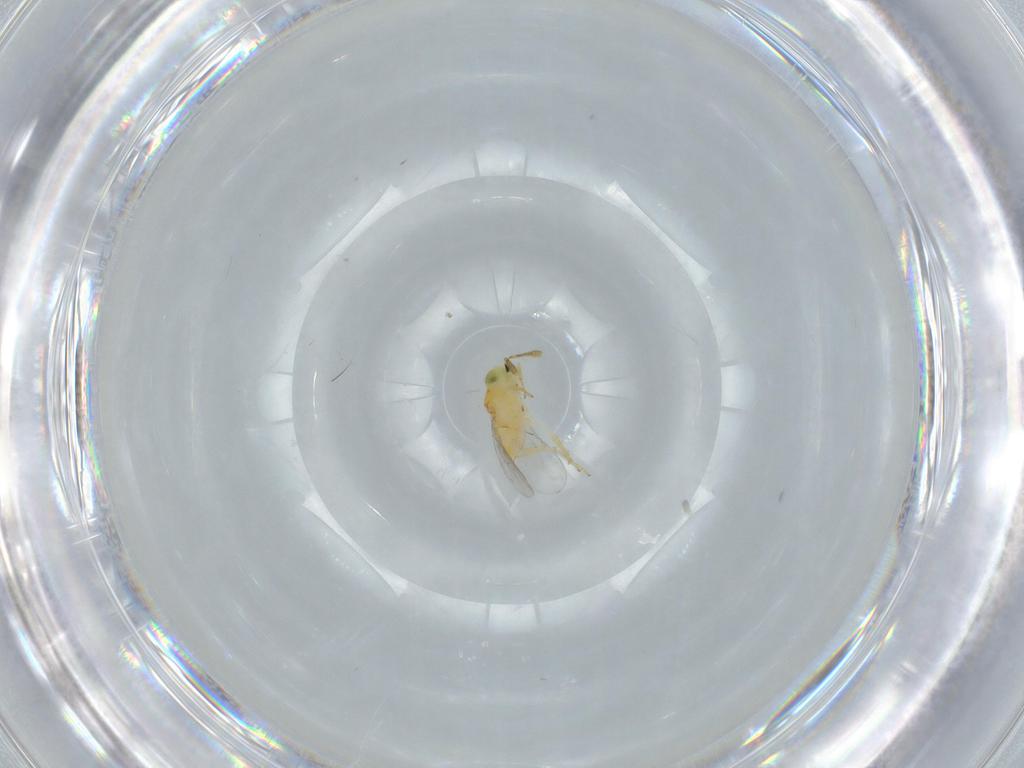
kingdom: Animalia
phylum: Arthropoda
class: Insecta
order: Hymenoptera
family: Encyrtidae
